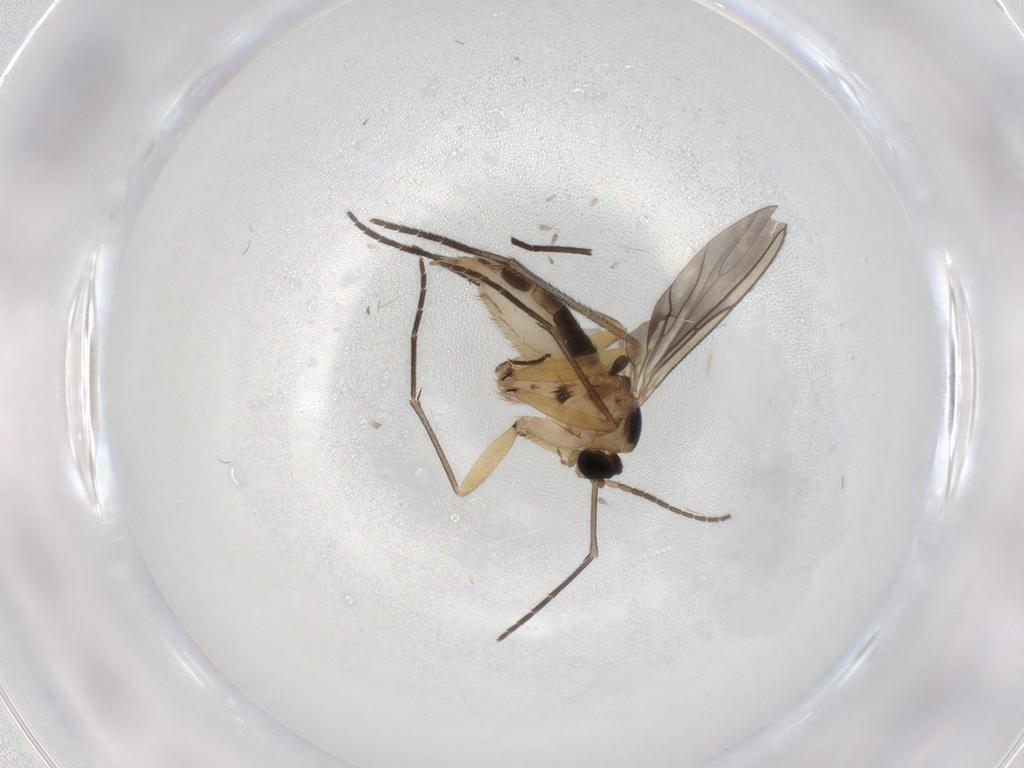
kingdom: Animalia
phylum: Arthropoda
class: Insecta
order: Diptera
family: Sciaridae
